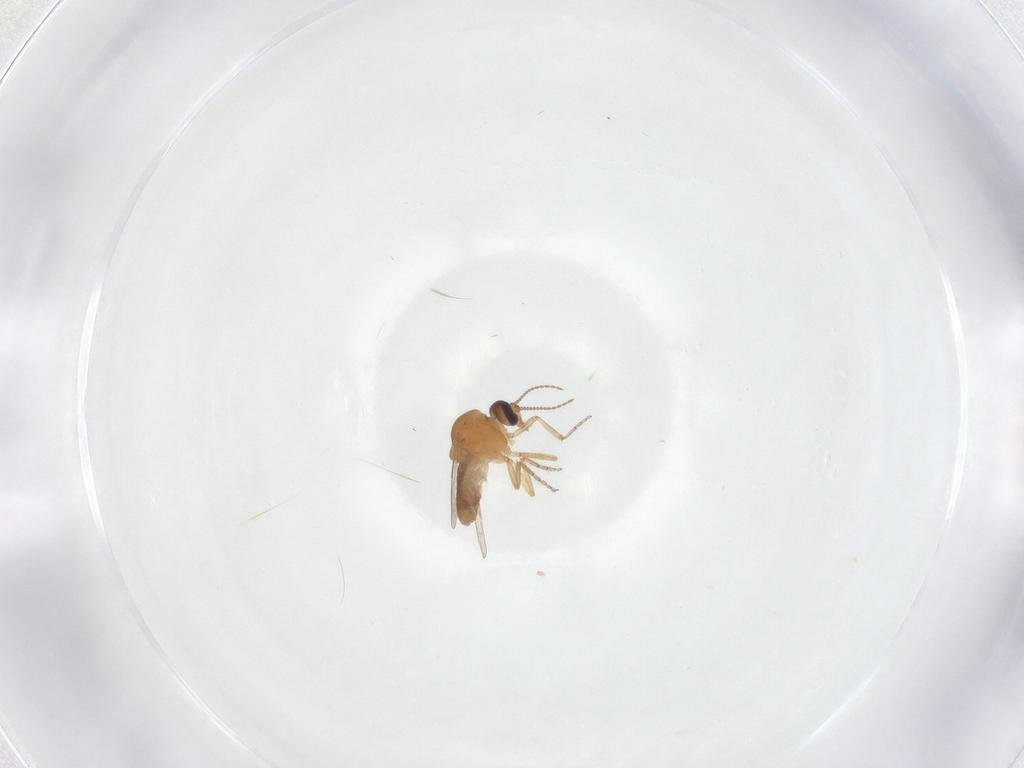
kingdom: Animalia
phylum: Arthropoda
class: Insecta
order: Diptera
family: Ceratopogonidae
